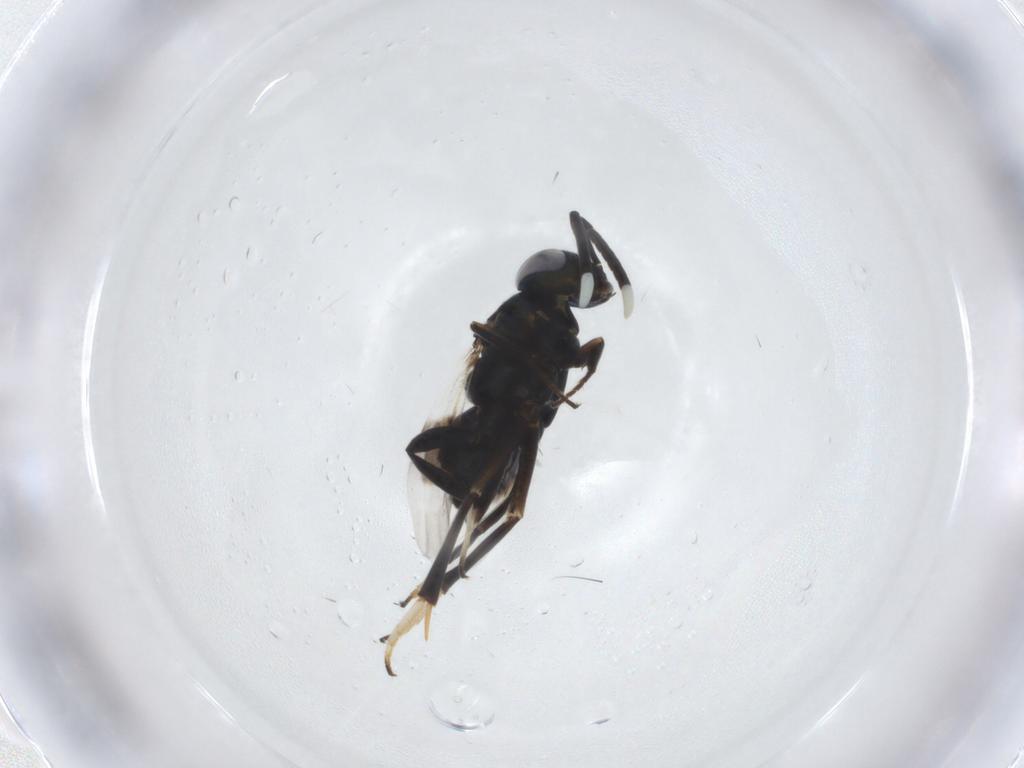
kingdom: Animalia
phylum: Arthropoda
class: Insecta
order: Hymenoptera
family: Encyrtidae
